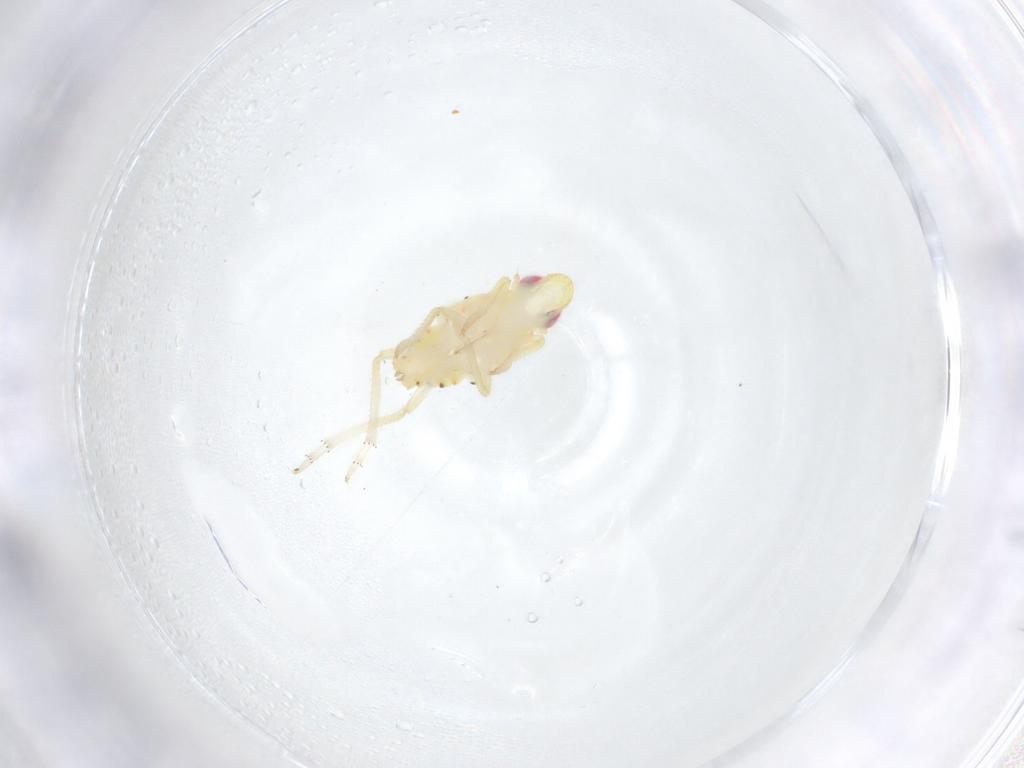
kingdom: Animalia
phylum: Arthropoda
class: Insecta
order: Hemiptera
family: Tropiduchidae
